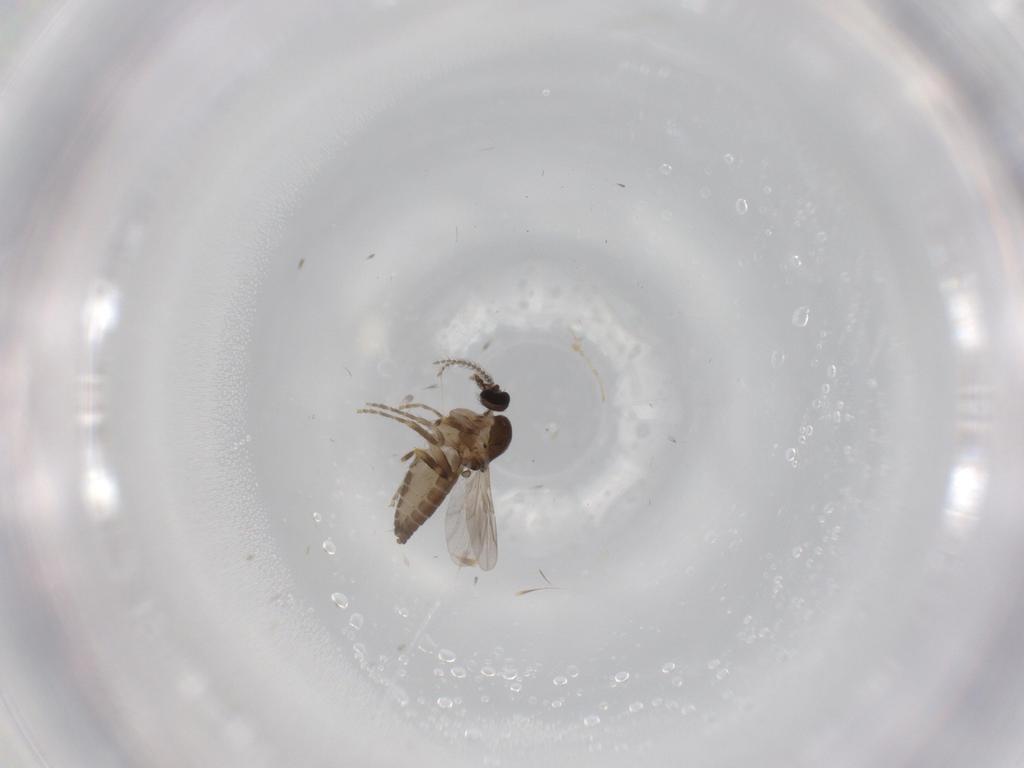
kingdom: Animalia
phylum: Arthropoda
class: Insecta
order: Diptera
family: Ceratopogonidae
